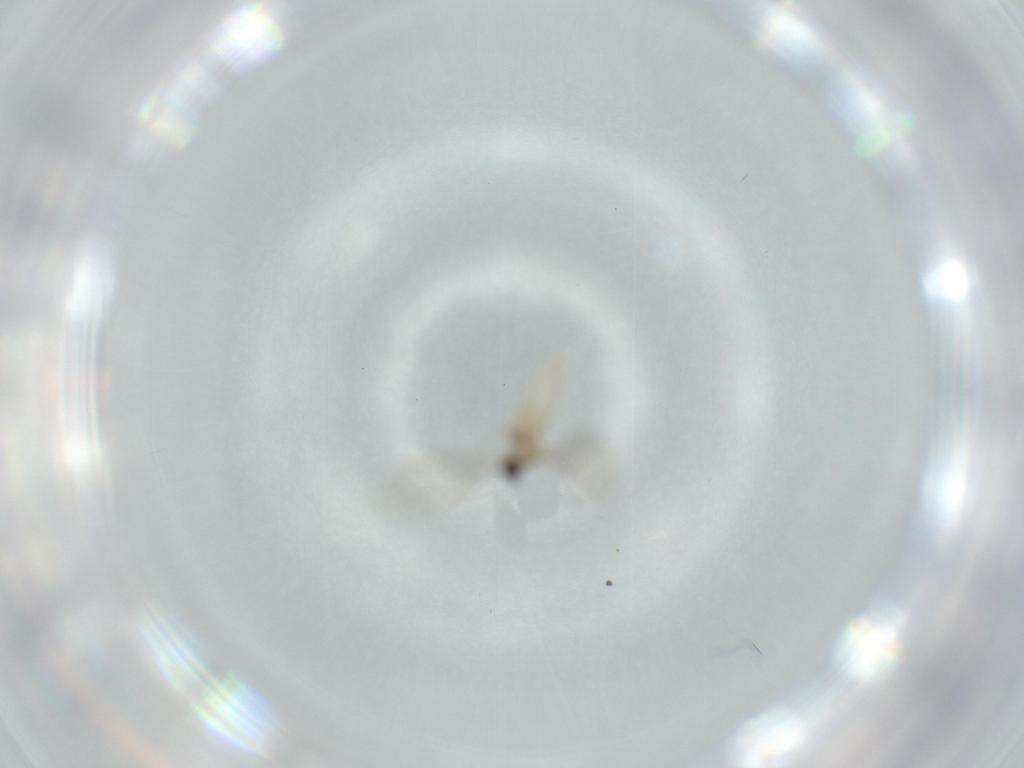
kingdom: Animalia
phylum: Arthropoda
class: Insecta
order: Diptera
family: Cecidomyiidae
